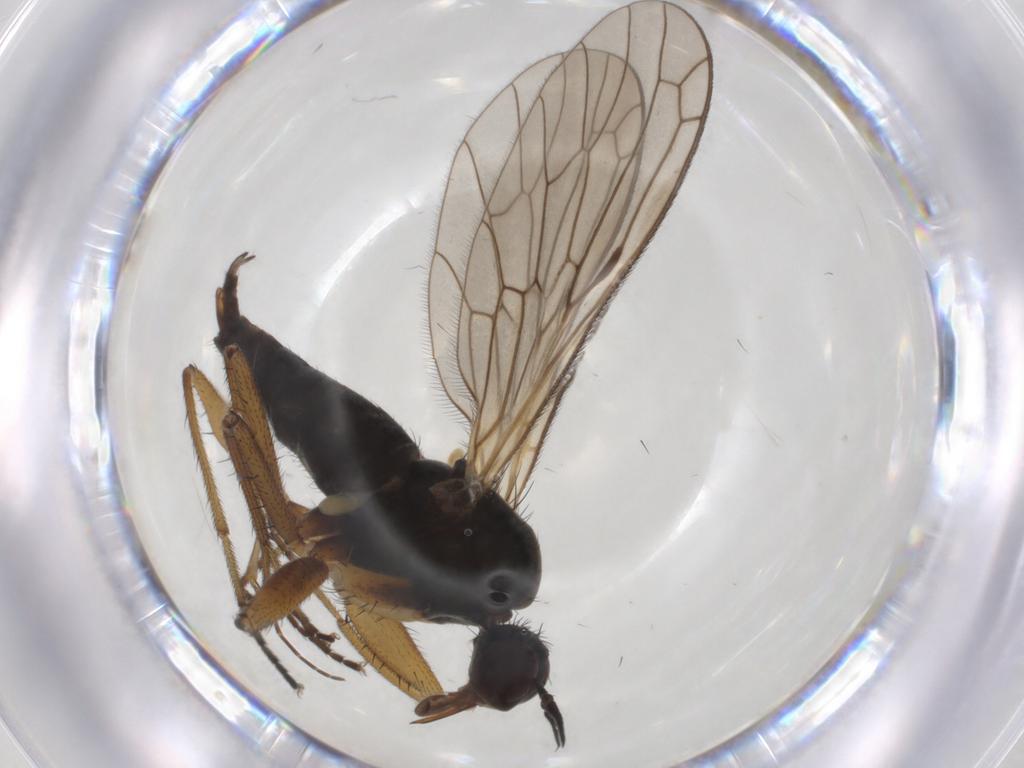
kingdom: Animalia
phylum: Arthropoda
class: Insecta
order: Diptera
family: Empididae
